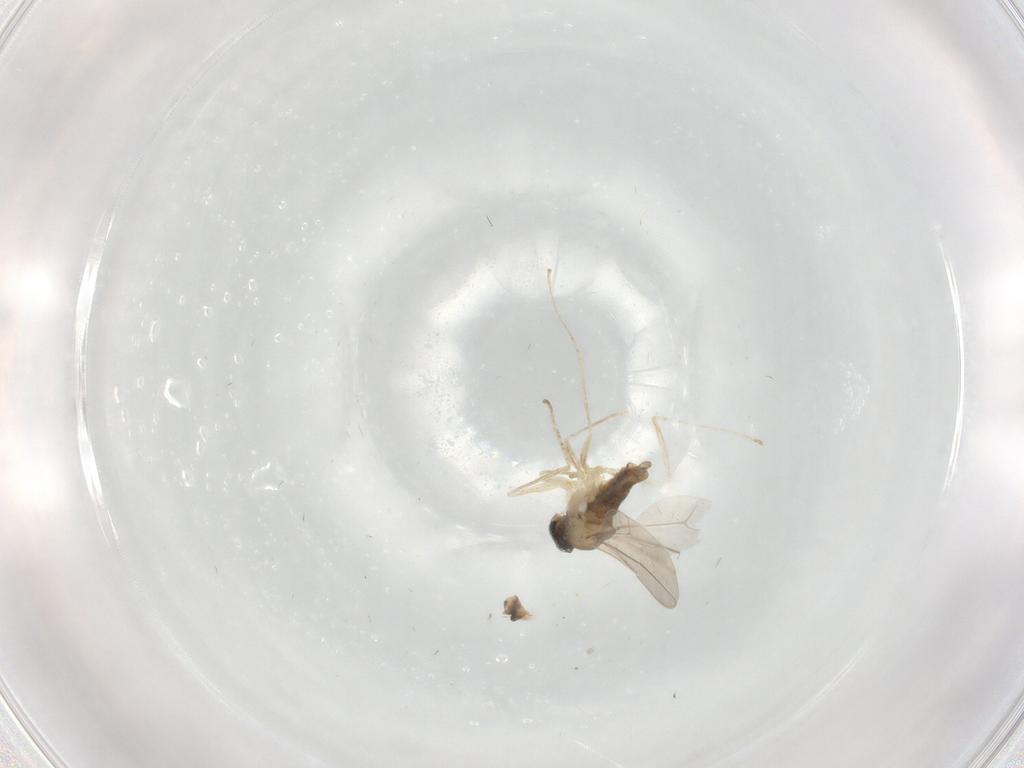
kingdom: Animalia
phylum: Arthropoda
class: Insecta
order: Diptera
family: Cecidomyiidae
